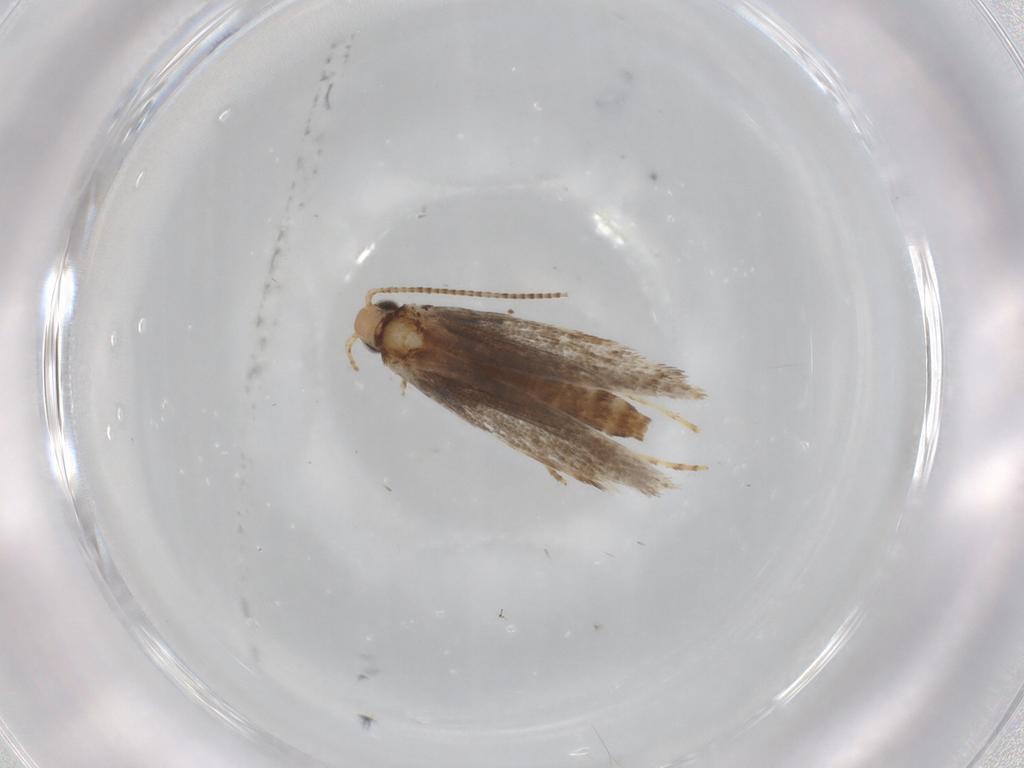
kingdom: Animalia
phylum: Arthropoda
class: Insecta
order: Lepidoptera
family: Gracillariidae
